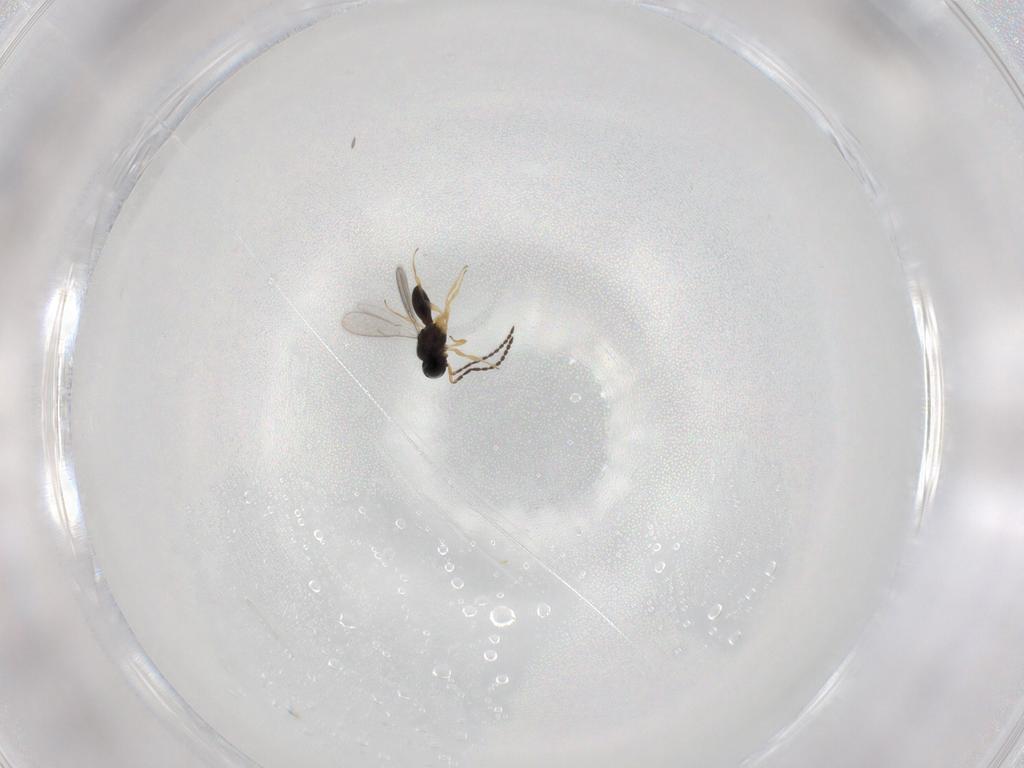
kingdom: Animalia
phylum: Arthropoda
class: Insecta
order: Hymenoptera
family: Scelionidae
